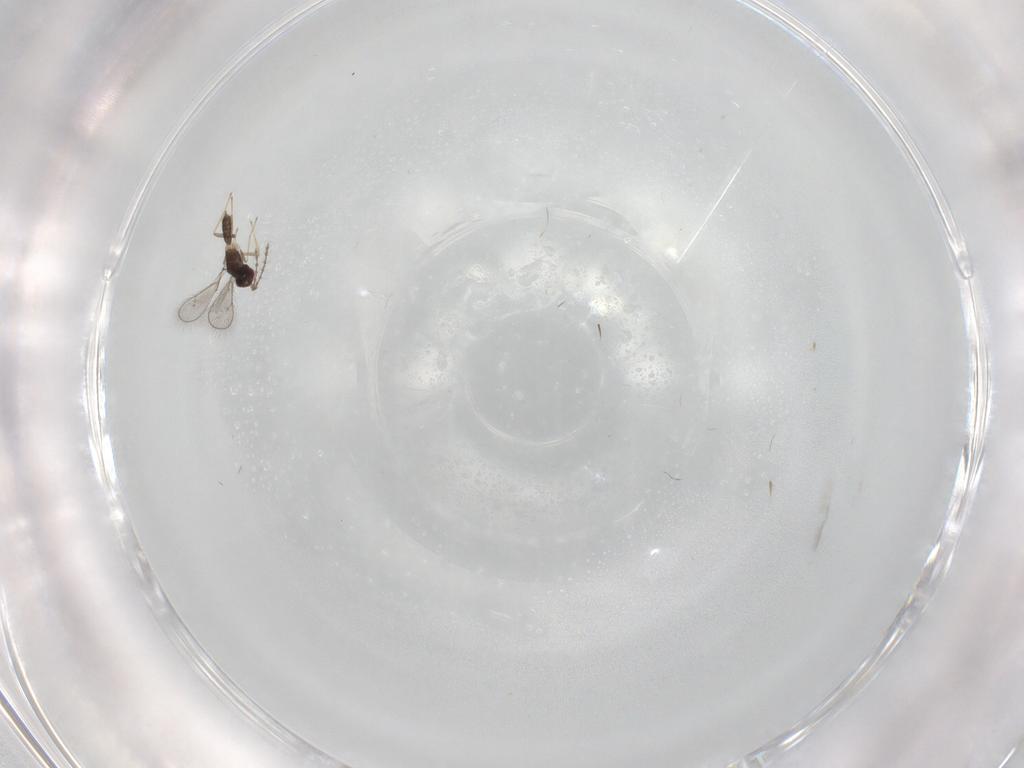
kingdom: Animalia
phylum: Arthropoda
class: Insecta
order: Hymenoptera
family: Eulophidae
